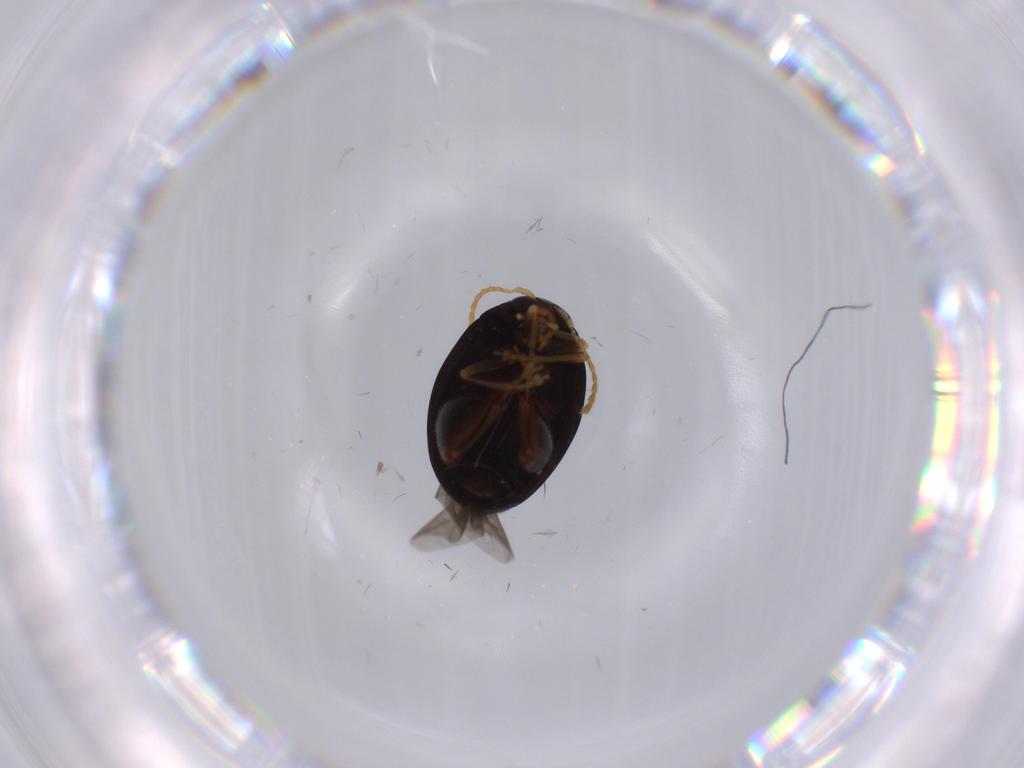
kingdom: Animalia
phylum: Arthropoda
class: Insecta
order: Coleoptera
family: Chrysomelidae
